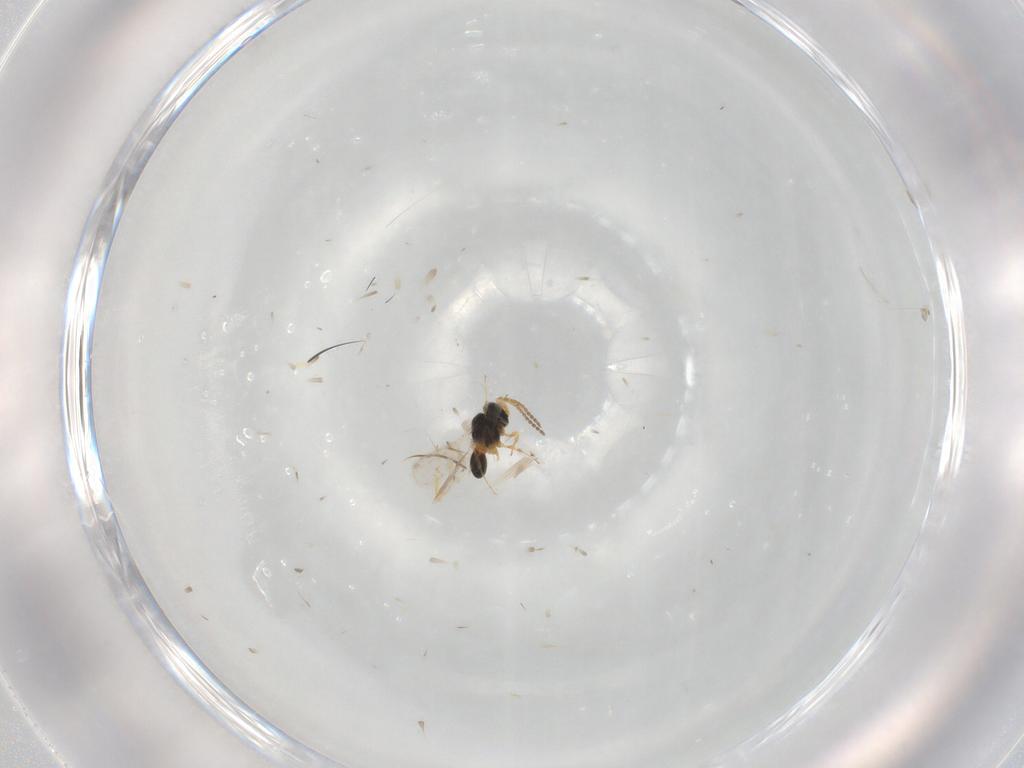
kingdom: Animalia
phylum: Arthropoda
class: Insecta
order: Hymenoptera
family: Scelionidae
